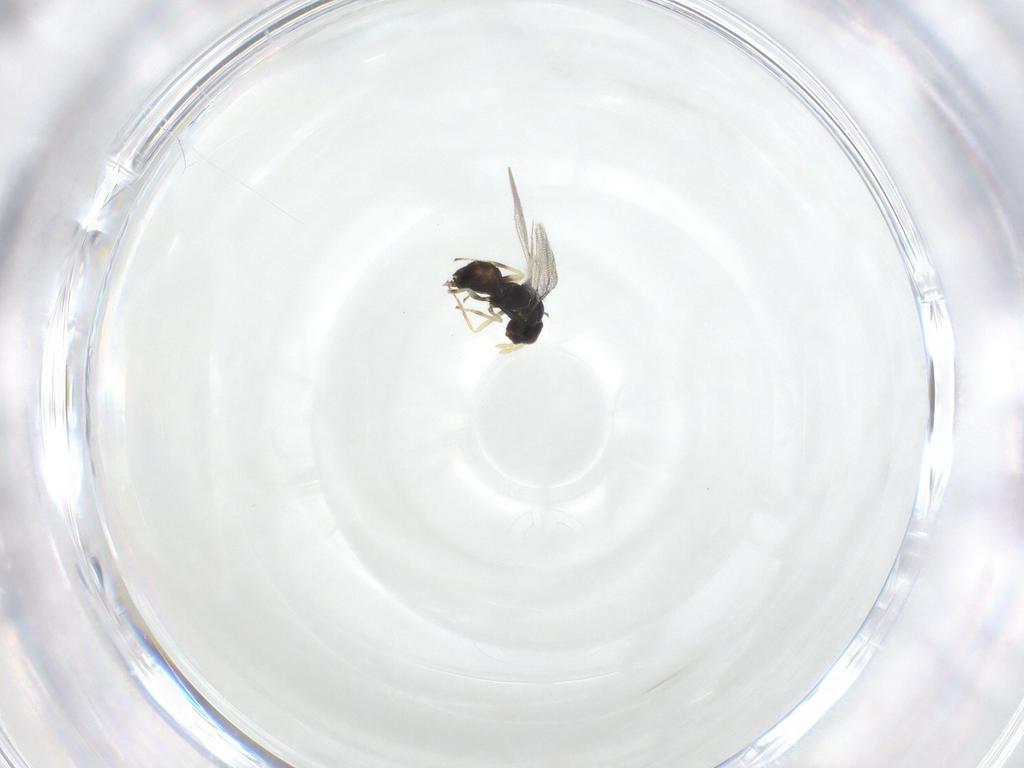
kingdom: Animalia
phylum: Arthropoda
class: Insecta
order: Hymenoptera
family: Eulophidae
